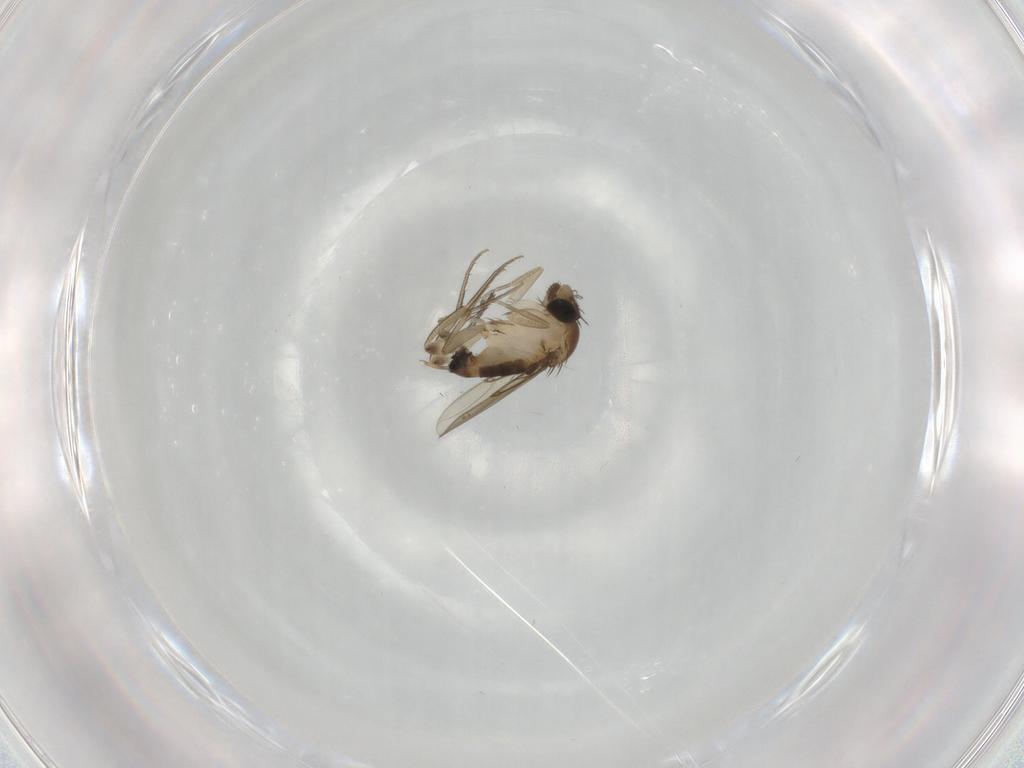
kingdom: Animalia
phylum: Arthropoda
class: Insecta
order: Diptera
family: Phoridae
